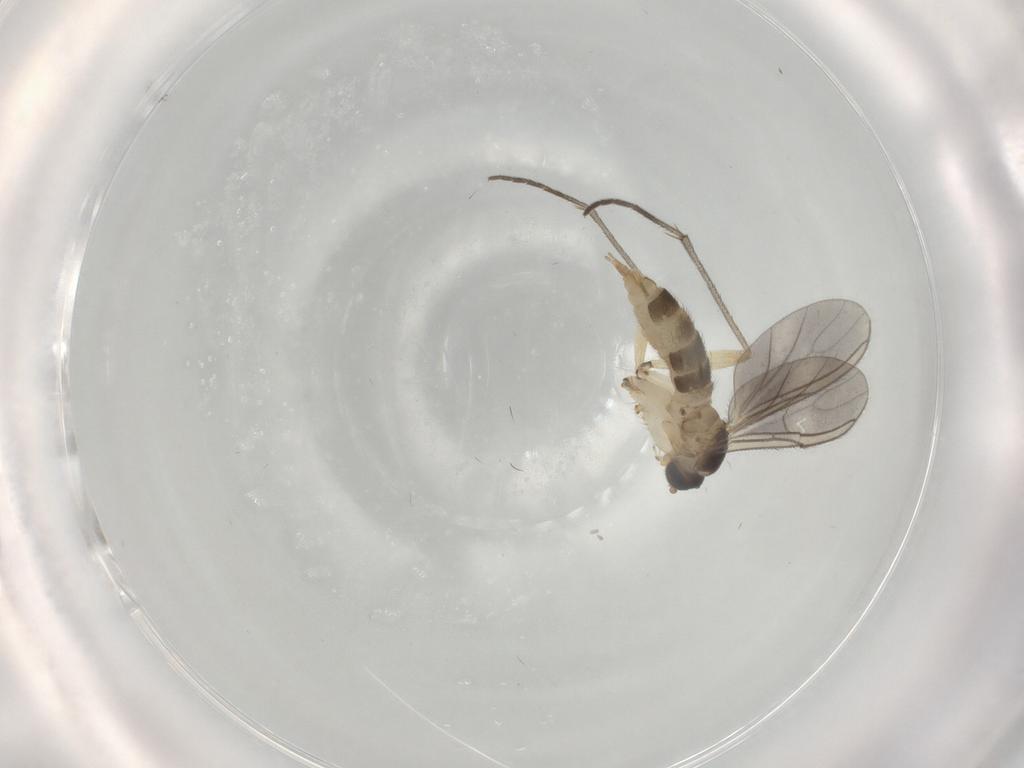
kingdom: Animalia
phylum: Arthropoda
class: Insecta
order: Diptera
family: Sciaridae
